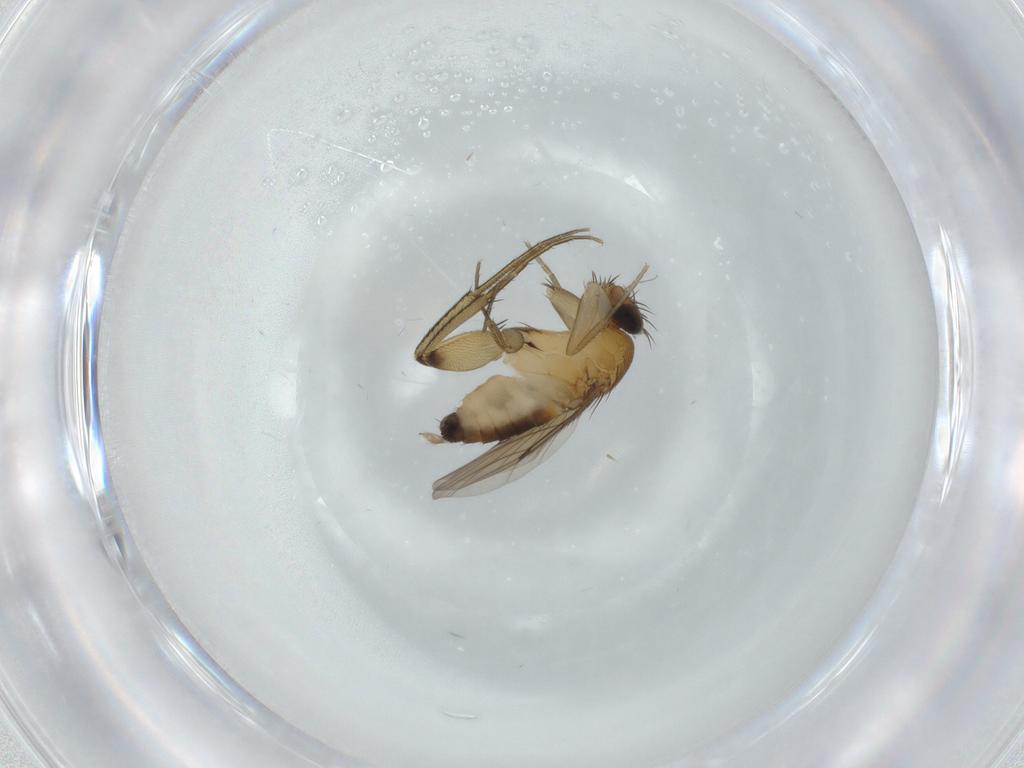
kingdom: Animalia
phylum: Arthropoda
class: Insecta
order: Diptera
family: Phoridae
